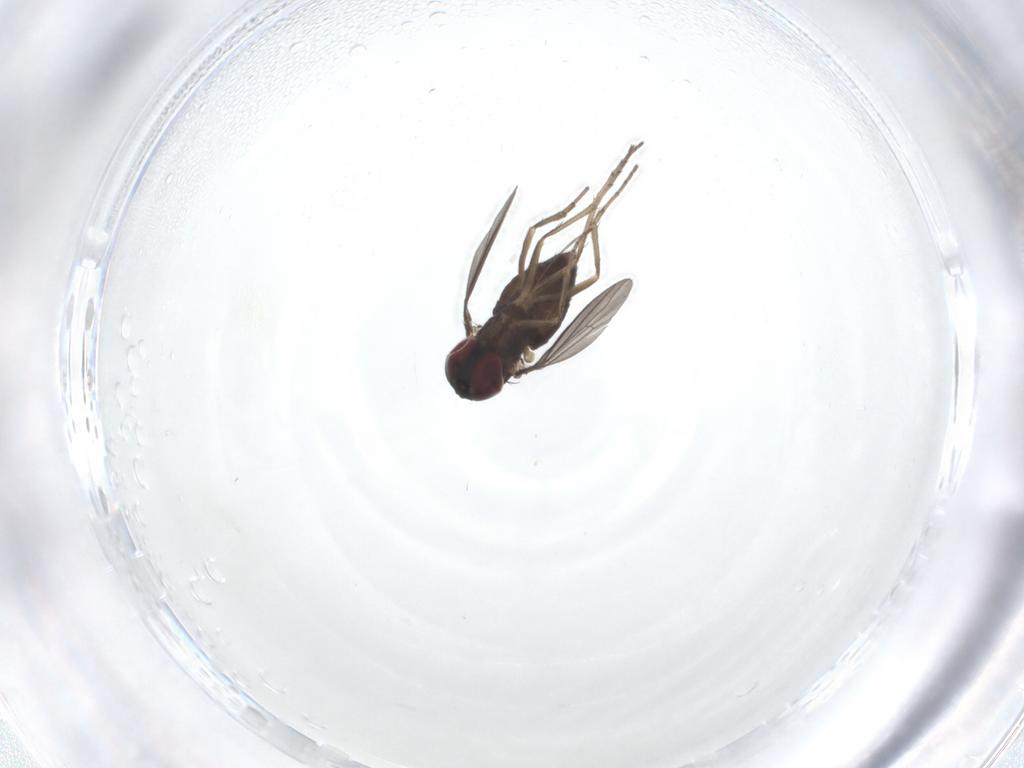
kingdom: Animalia
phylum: Arthropoda
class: Insecta
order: Diptera
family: Dolichopodidae
